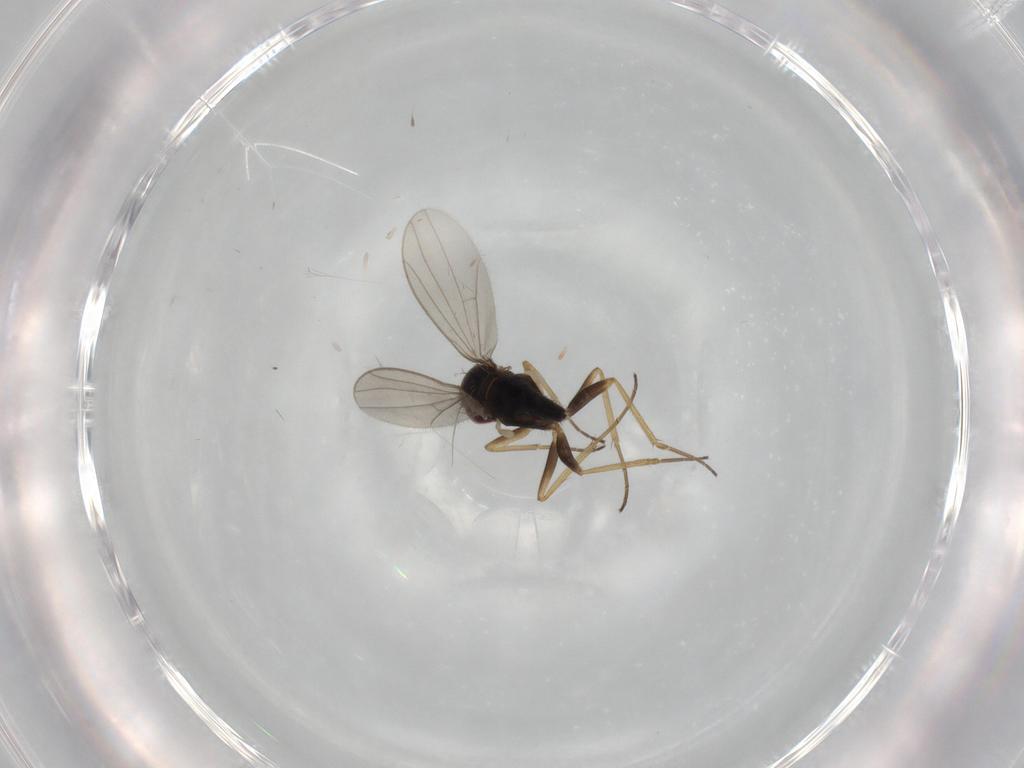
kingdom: Animalia
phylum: Arthropoda
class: Insecta
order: Diptera
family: Dolichopodidae
